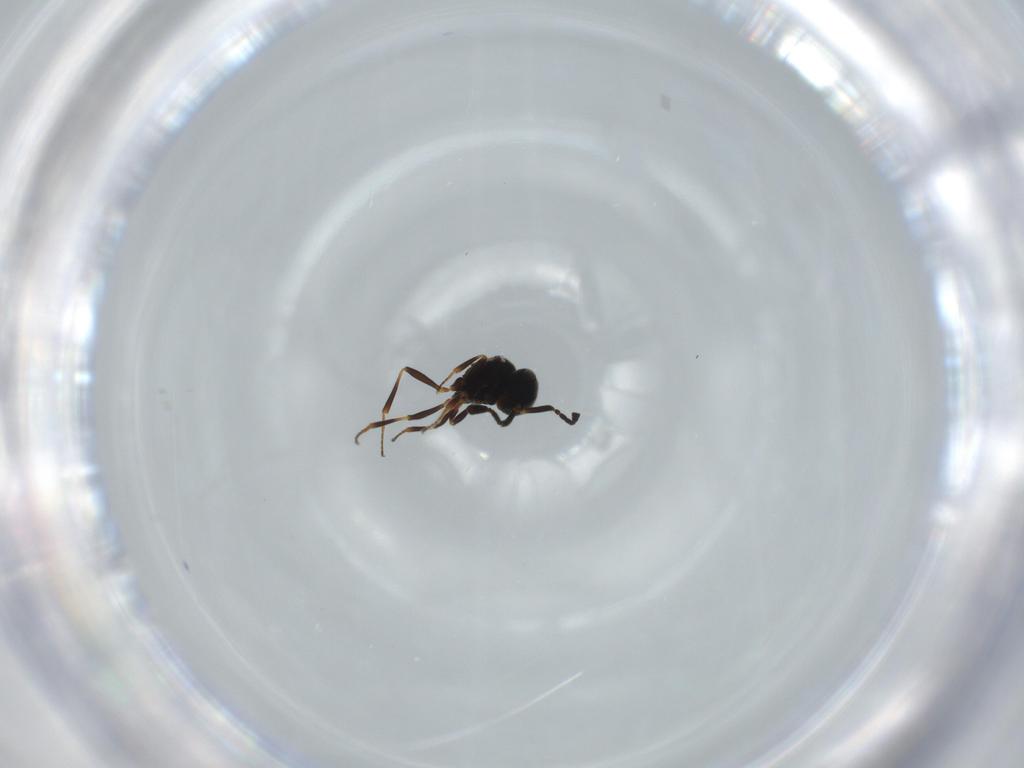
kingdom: Animalia
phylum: Arthropoda
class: Insecta
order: Hymenoptera
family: Scelionidae
